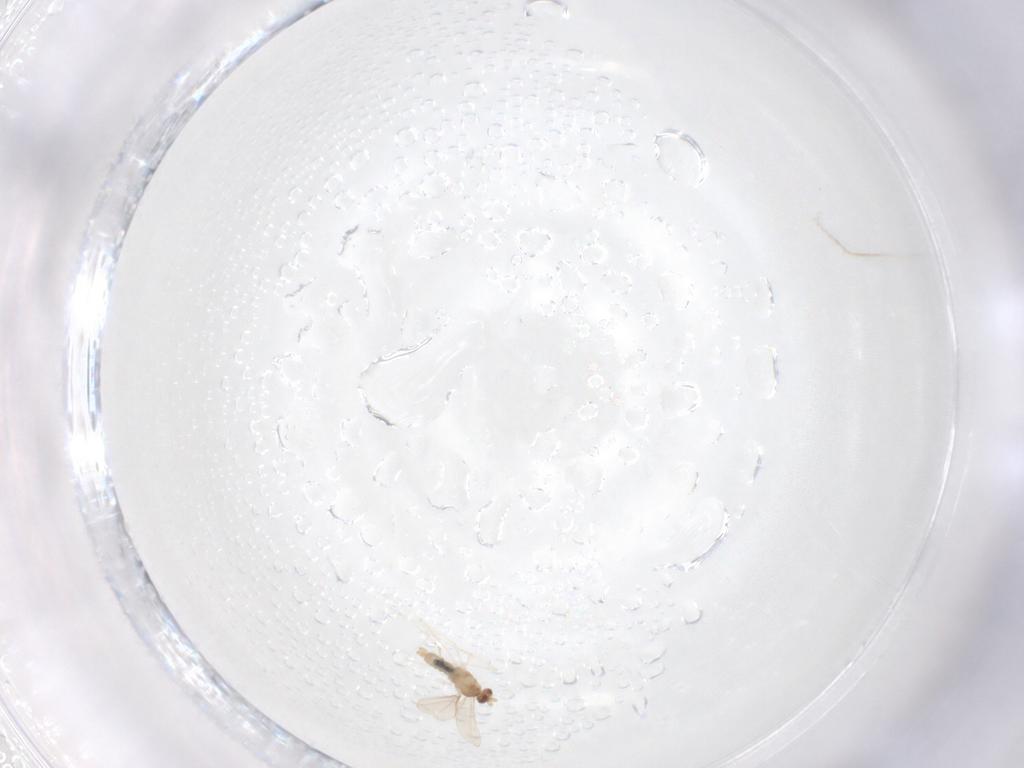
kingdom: Animalia
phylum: Arthropoda
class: Insecta
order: Diptera
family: Cecidomyiidae
